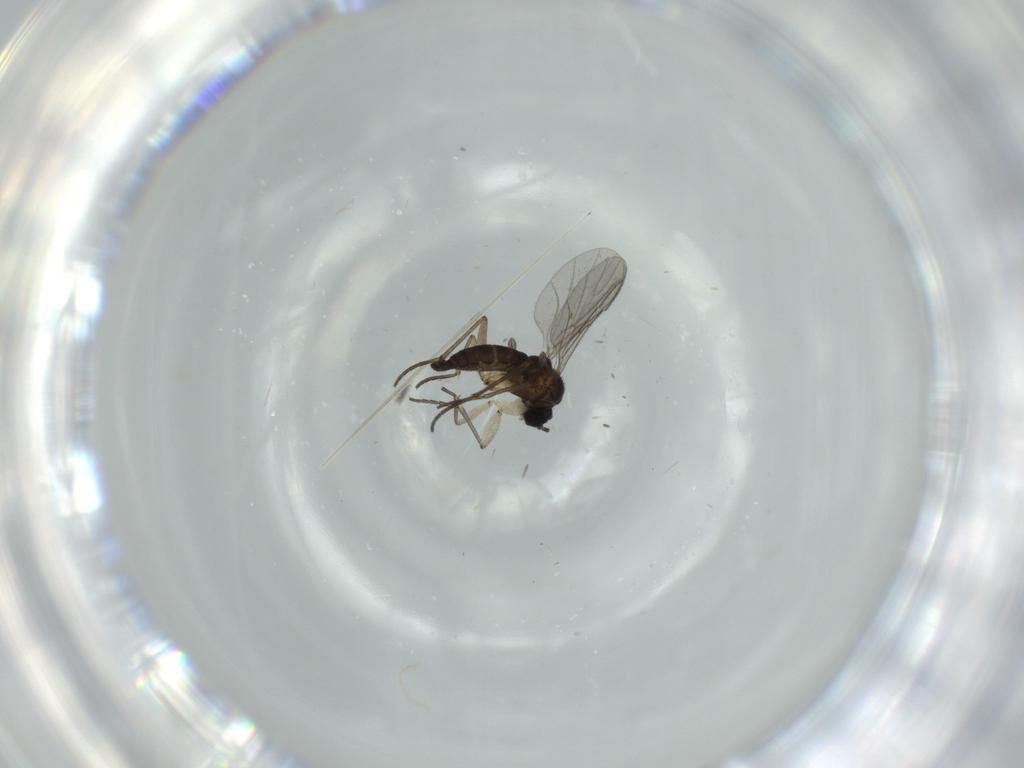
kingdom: Animalia
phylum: Arthropoda
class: Insecta
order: Diptera
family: Sciaridae
